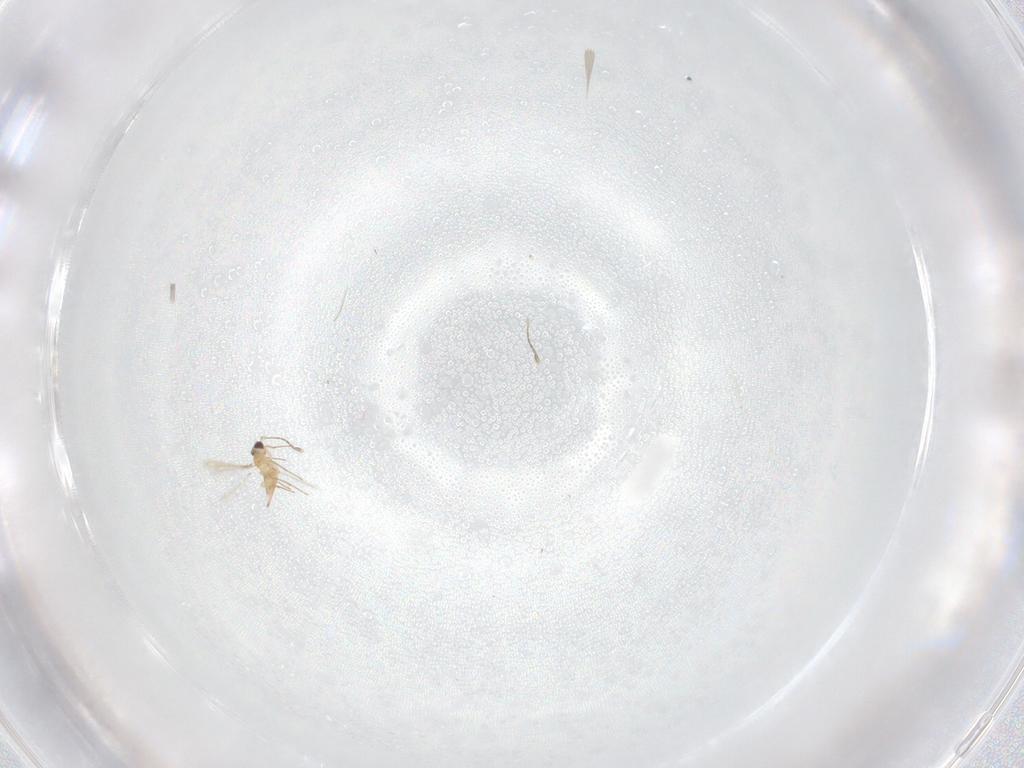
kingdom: Animalia
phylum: Arthropoda
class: Insecta
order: Hymenoptera
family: Mymaridae
